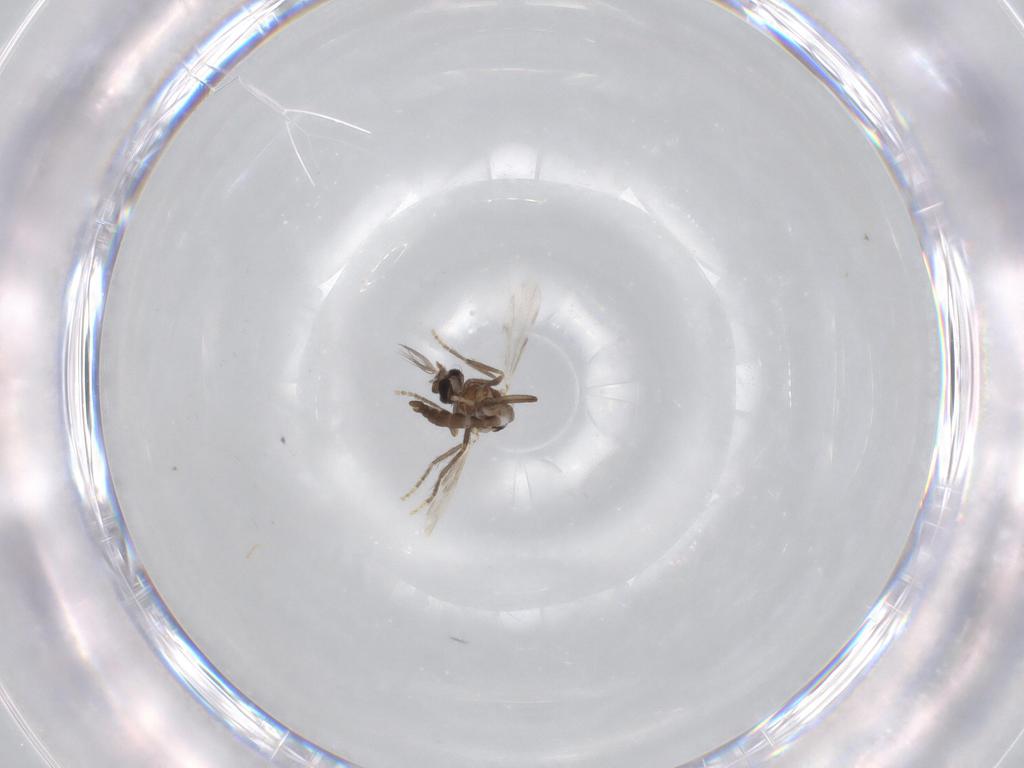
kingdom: Animalia
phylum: Arthropoda
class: Insecta
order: Diptera
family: Ceratopogonidae
